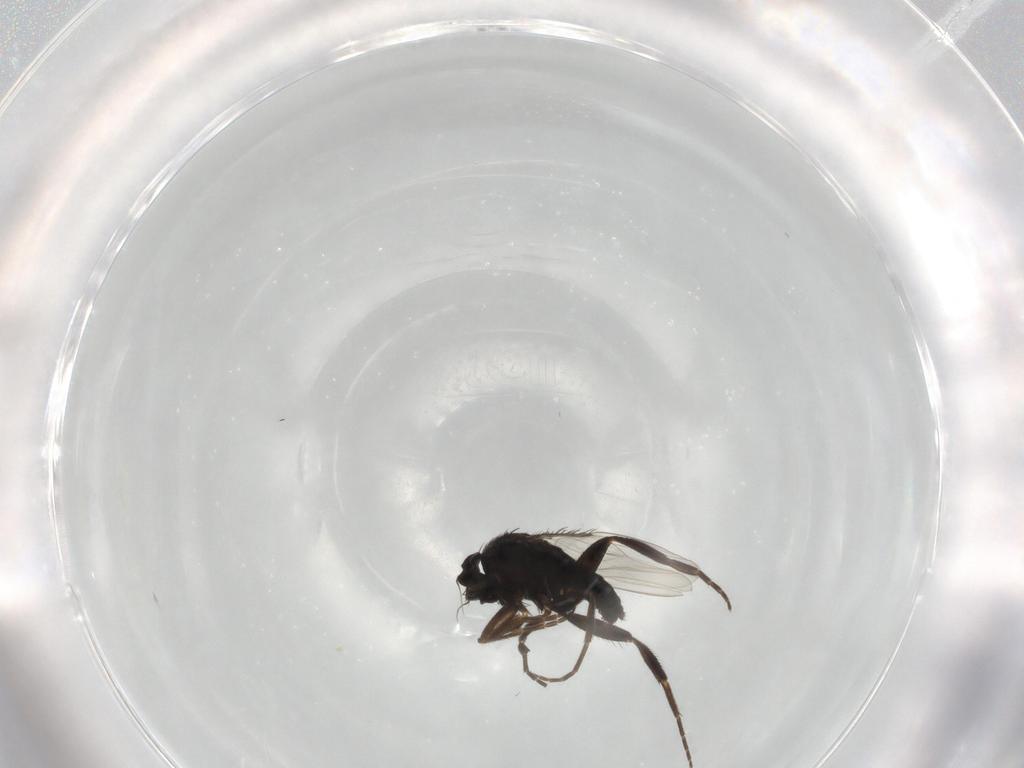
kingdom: Animalia
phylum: Arthropoda
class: Insecta
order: Diptera
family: Phoridae
